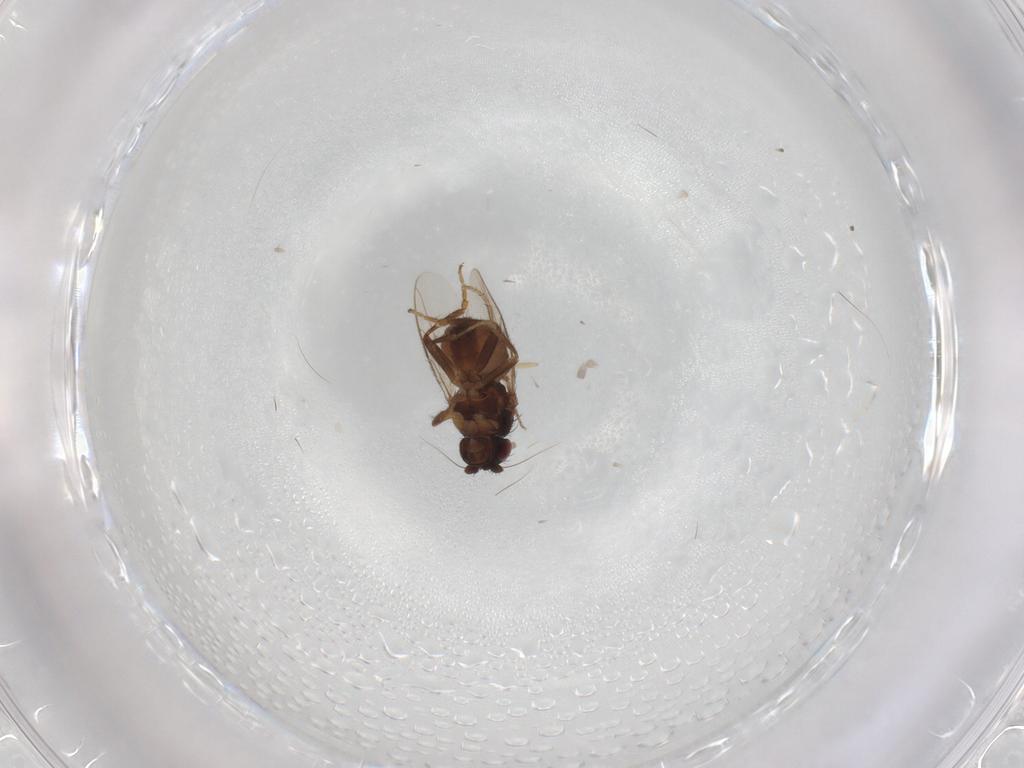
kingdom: Animalia
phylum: Arthropoda
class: Insecta
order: Diptera
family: Sphaeroceridae
